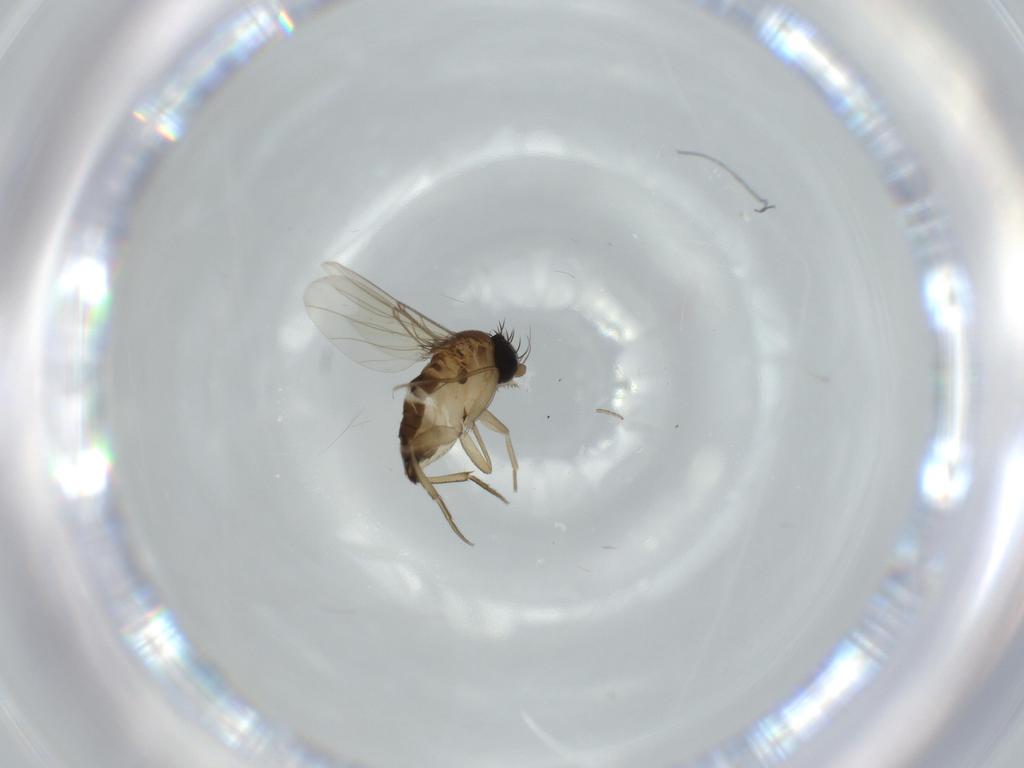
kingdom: Animalia
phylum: Arthropoda
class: Insecta
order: Diptera
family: Phoridae
